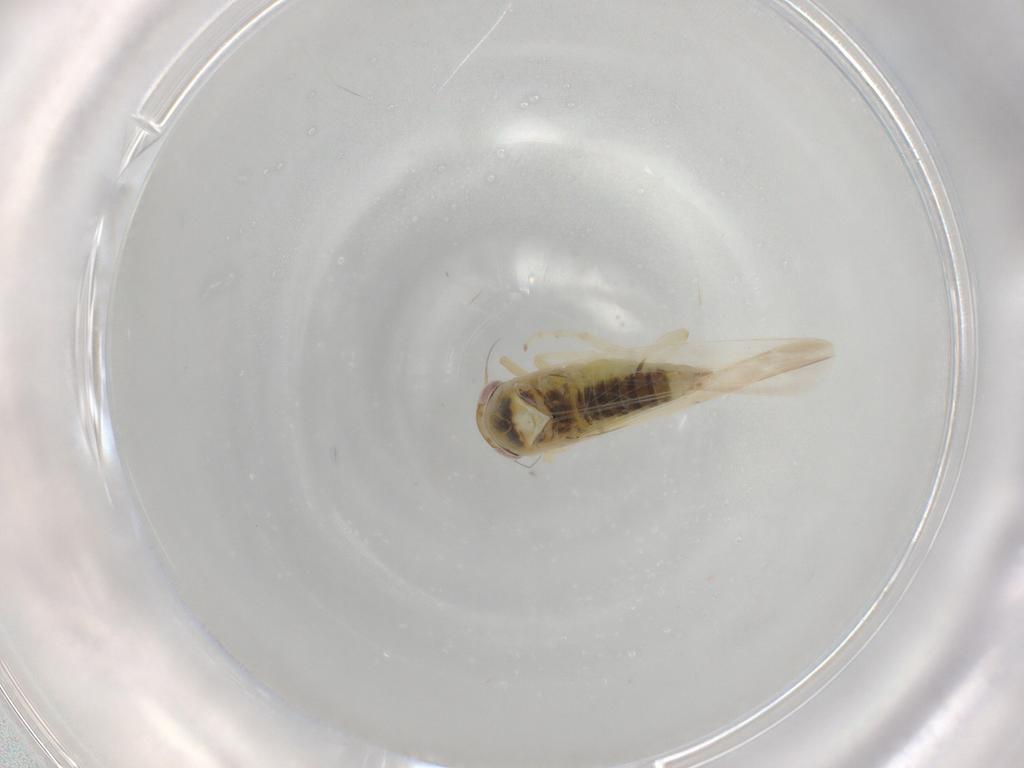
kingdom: Animalia
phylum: Arthropoda
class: Insecta
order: Hemiptera
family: Cicadellidae
